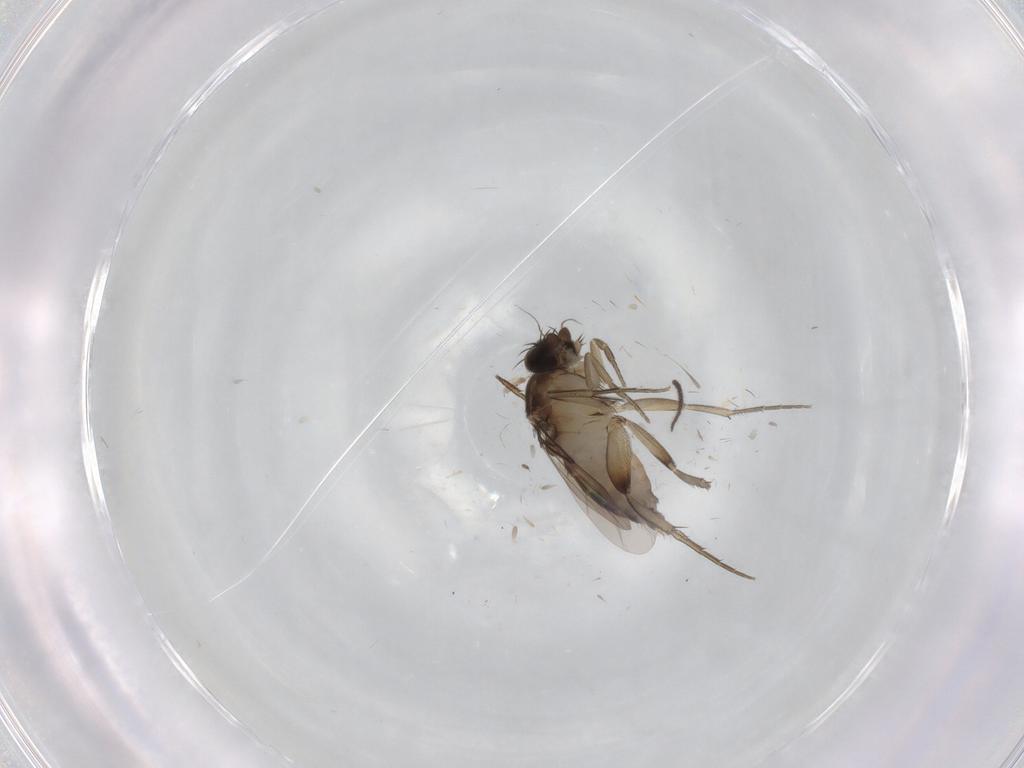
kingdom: Animalia
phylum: Arthropoda
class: Insecta
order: Diptera
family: Phoridae
